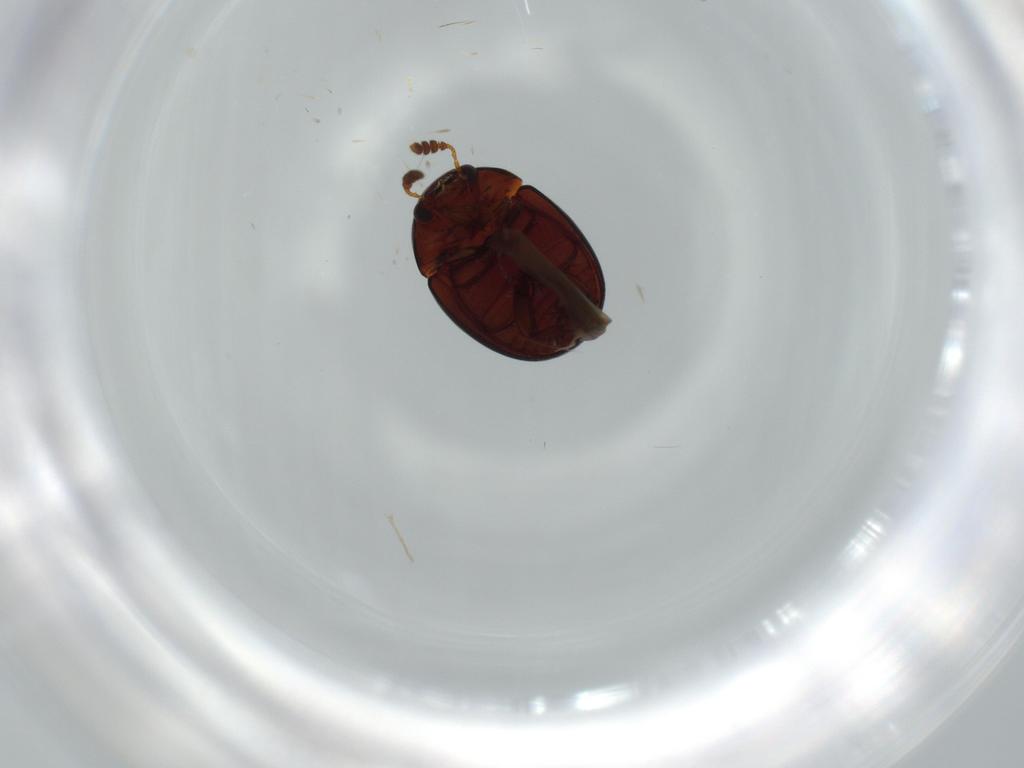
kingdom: Animalia
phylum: Arthropoda
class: Insecta
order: Coleoptera
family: Leiodidae
